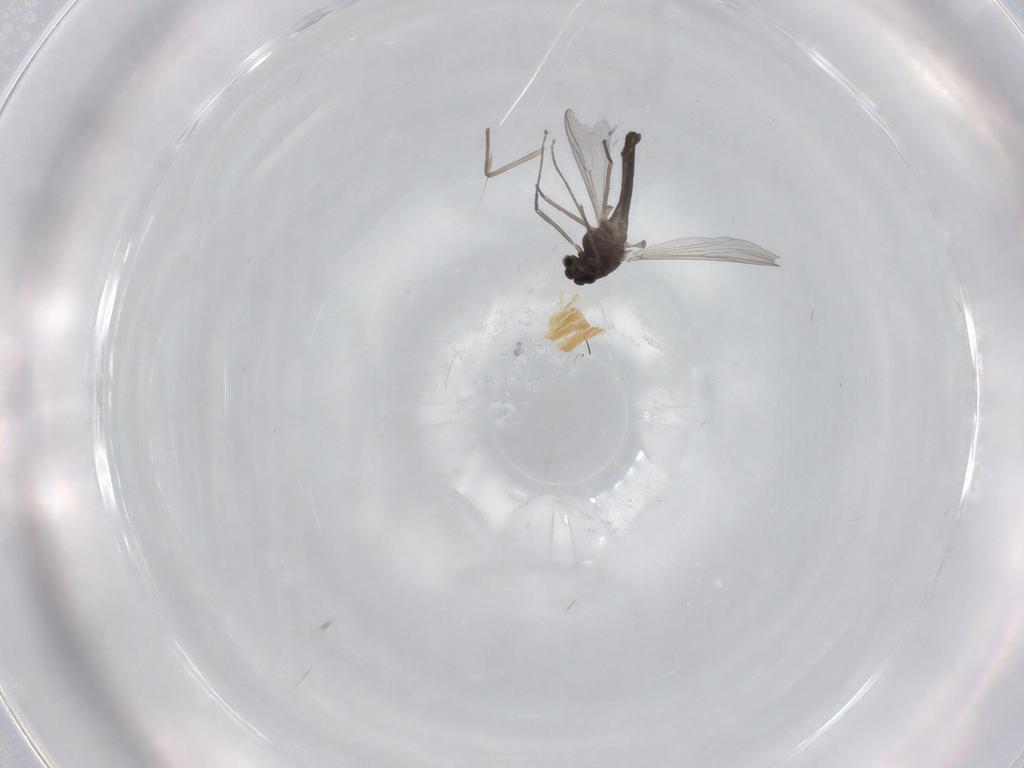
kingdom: Animalia
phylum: Arthropoda
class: Insecta
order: Diptera
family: Chironomidae
